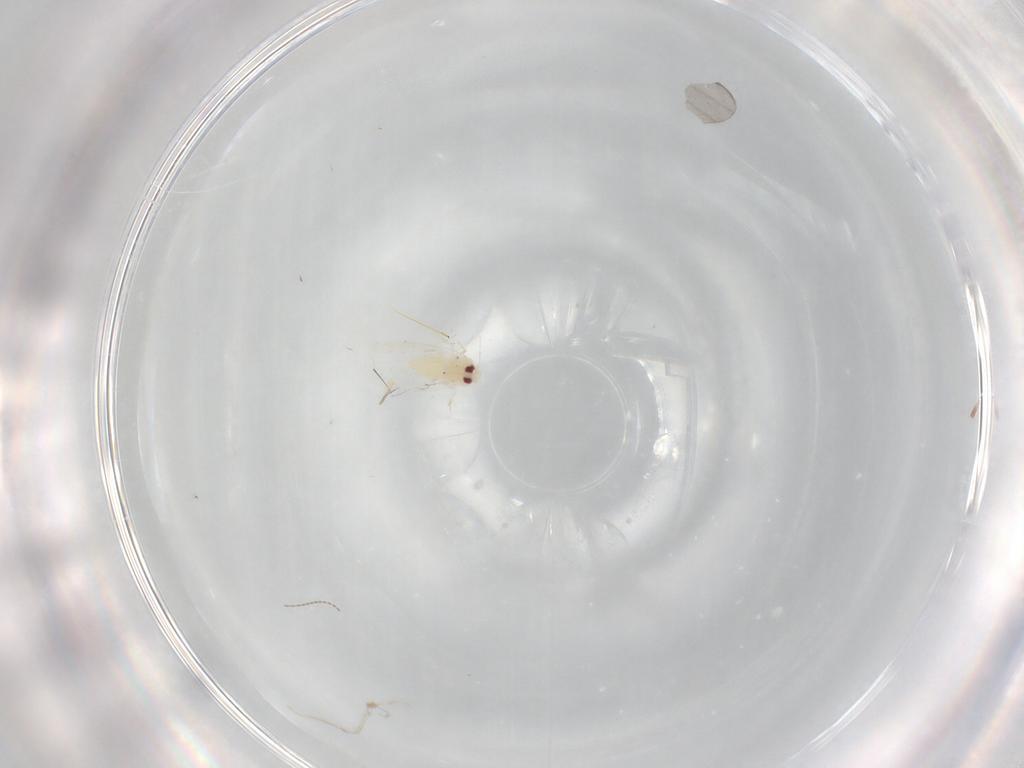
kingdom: Animalia
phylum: Arthropoda
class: Insecta
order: Hemiptera
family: Aleyrodidae
